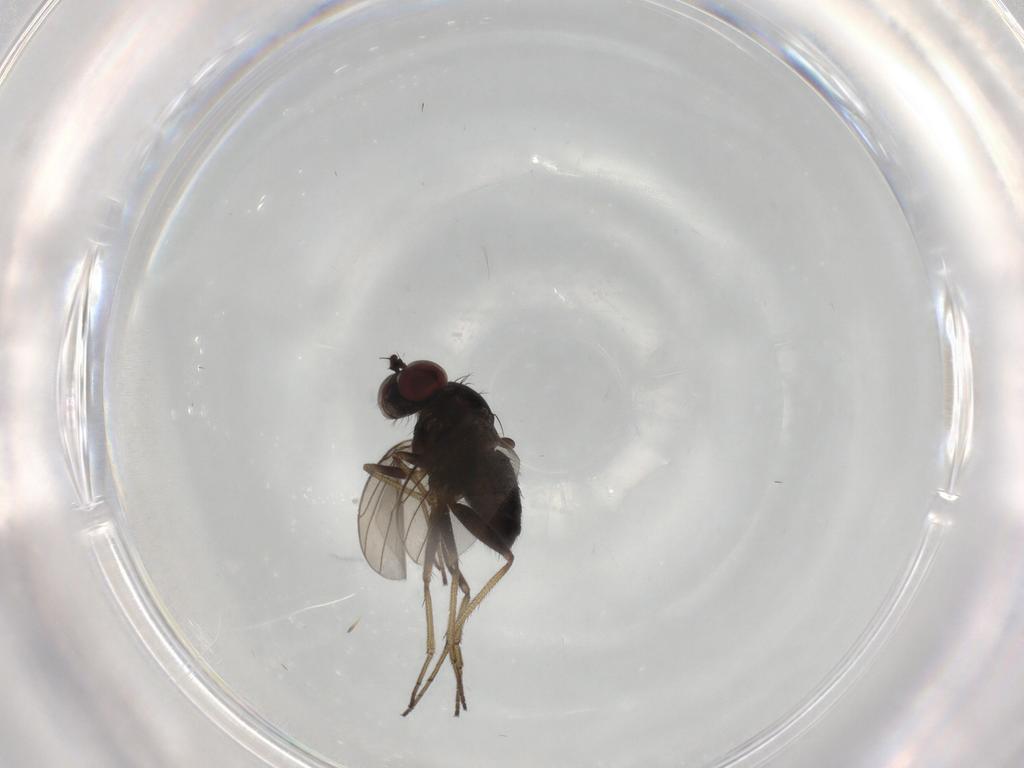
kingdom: Animalia
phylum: Arthropoda
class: Insecta
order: Diptera
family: Dolichopodidae
